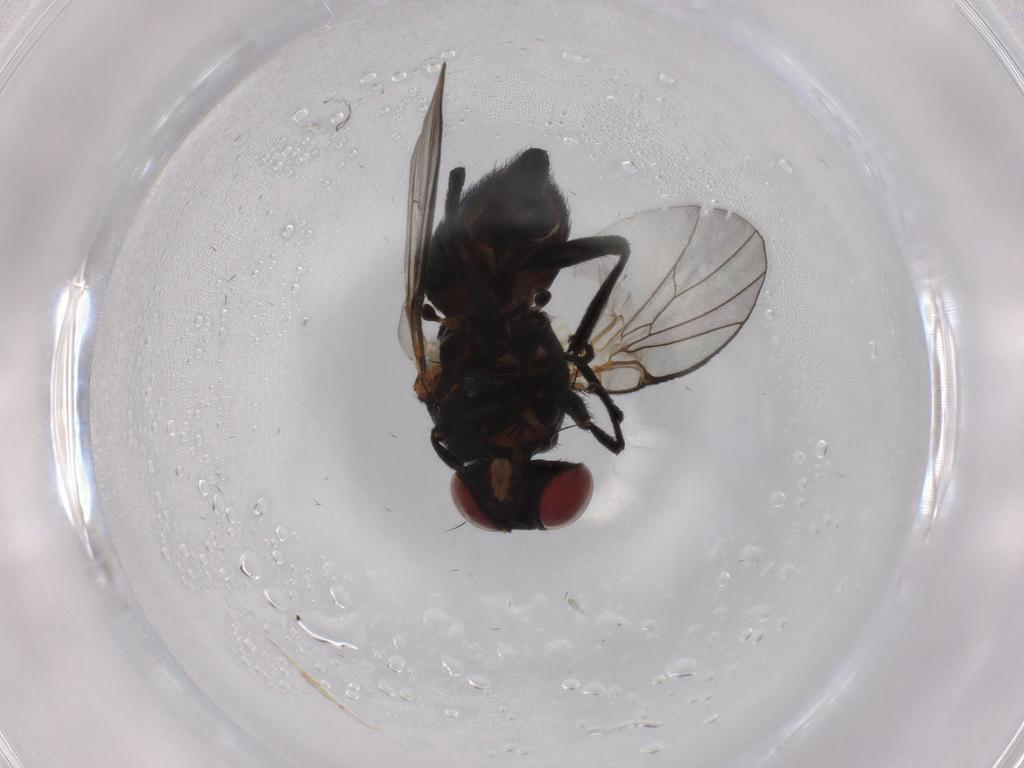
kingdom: Animalia
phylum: Arthropoda
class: Insecta
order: Diptera
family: Agromyzidae
